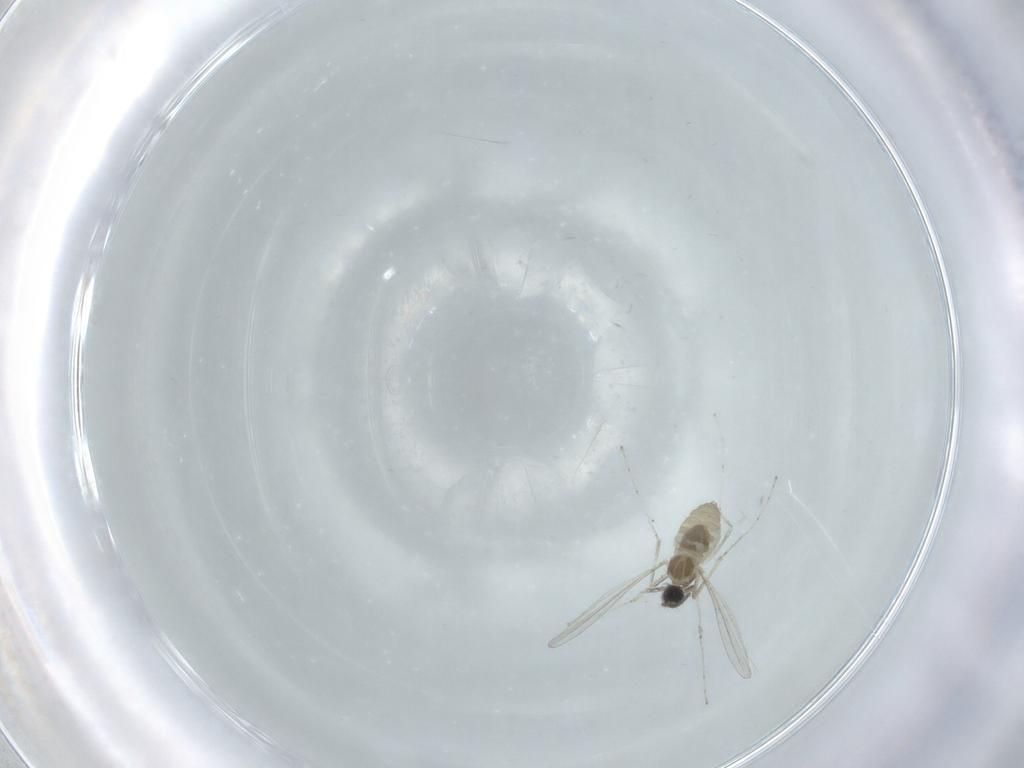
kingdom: Animalia
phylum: Arthropoda
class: Insecta
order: Diptera
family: Cecidomyiidae
